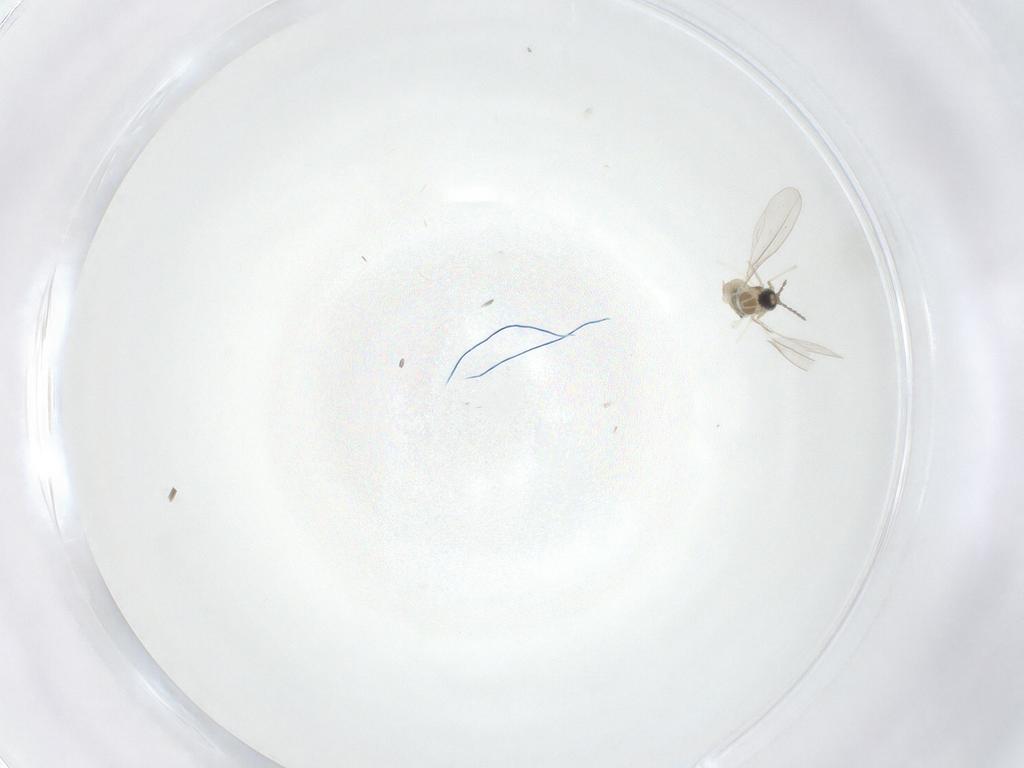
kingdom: Animalia
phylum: Arthropoda
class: Insecta
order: Diptera
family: Cecidomyiidae
